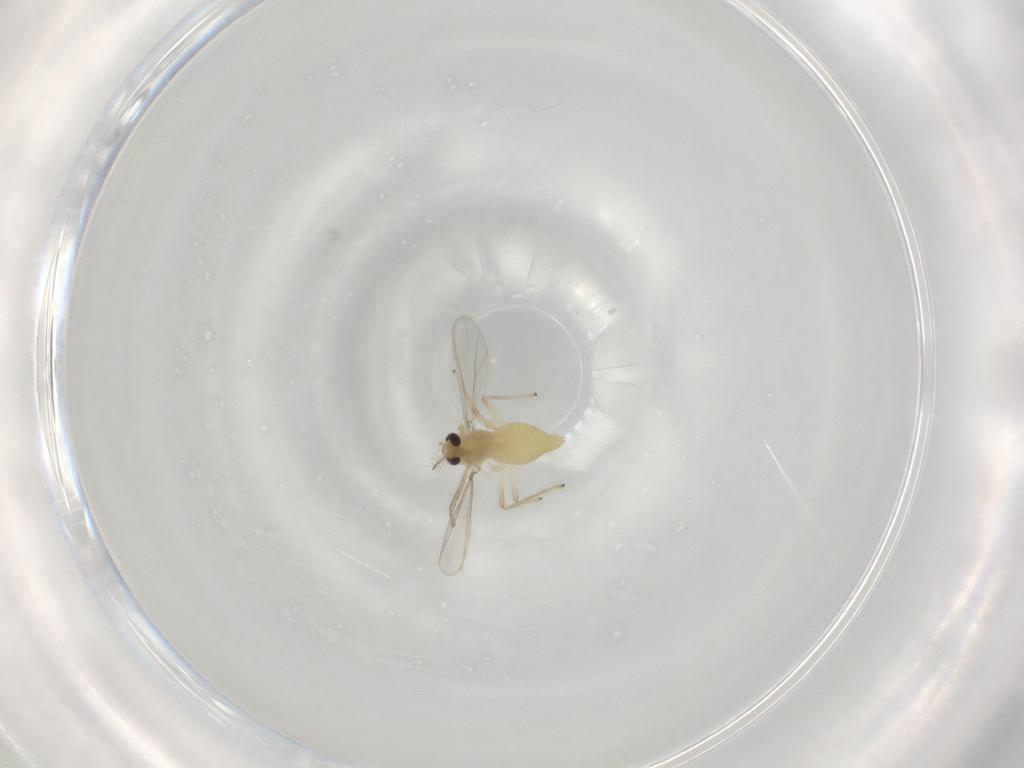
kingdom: Animalia
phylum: Arthropoda
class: Insecta
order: Diptera
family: Chironomidae
